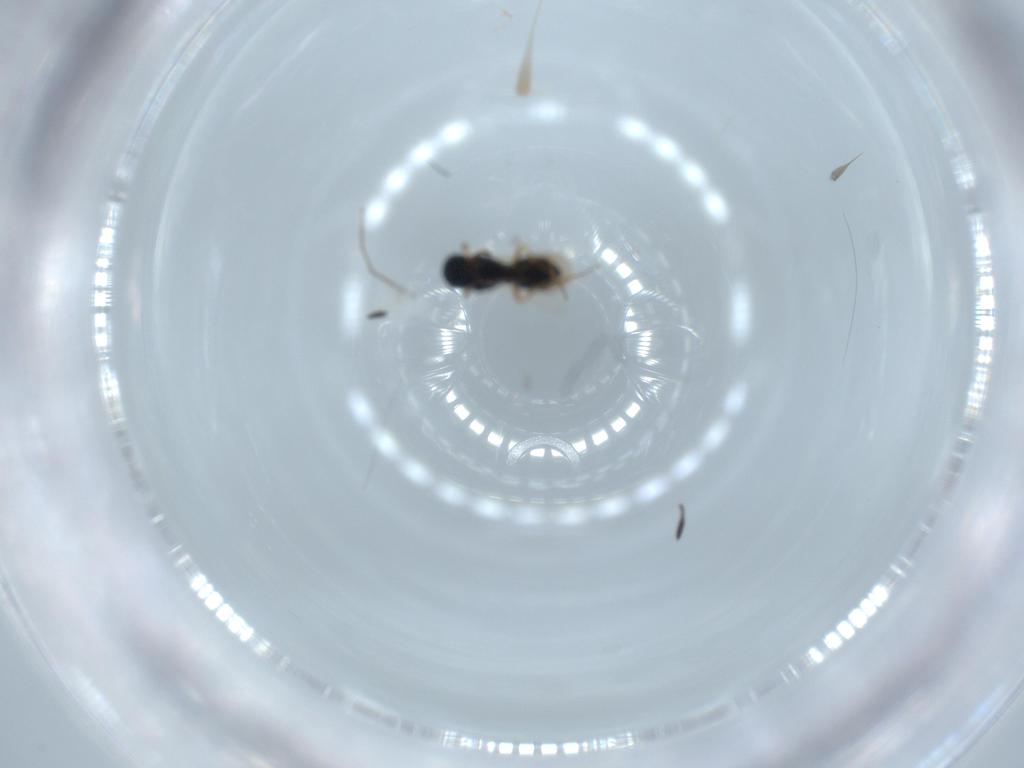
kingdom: Animalia
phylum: Arthropoda
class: Insecta
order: Hymenoptera
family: Scelionidae
